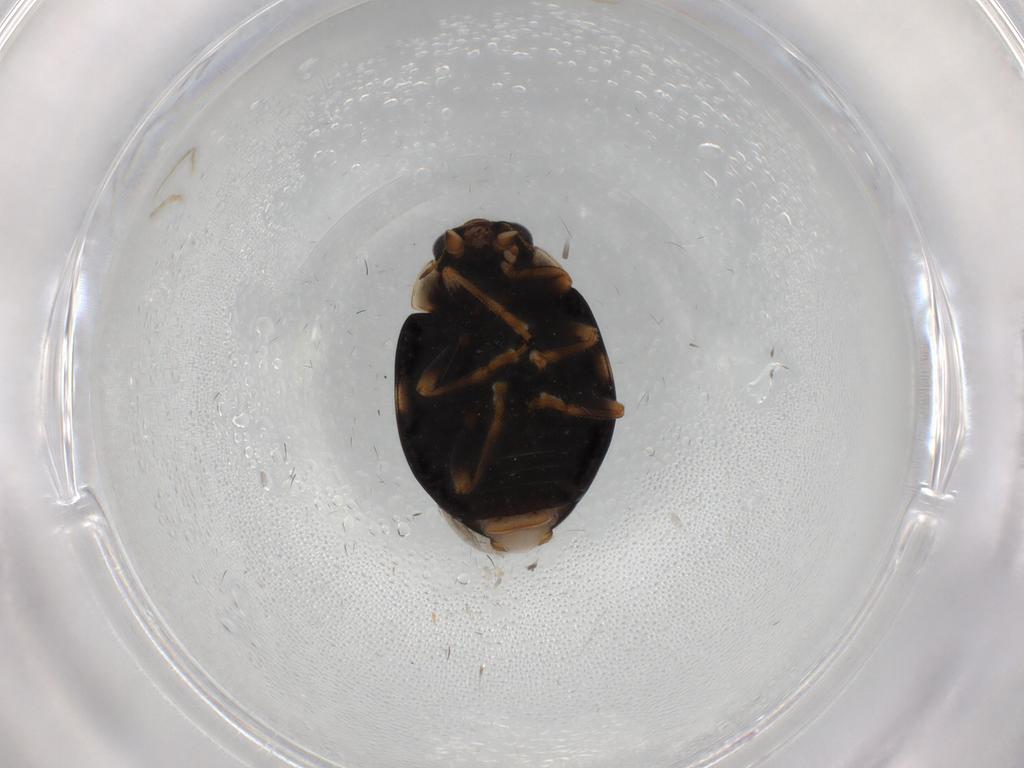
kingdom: Animalia
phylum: Arthropoda
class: Insecta
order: Coleoptera
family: Coccinellidae
